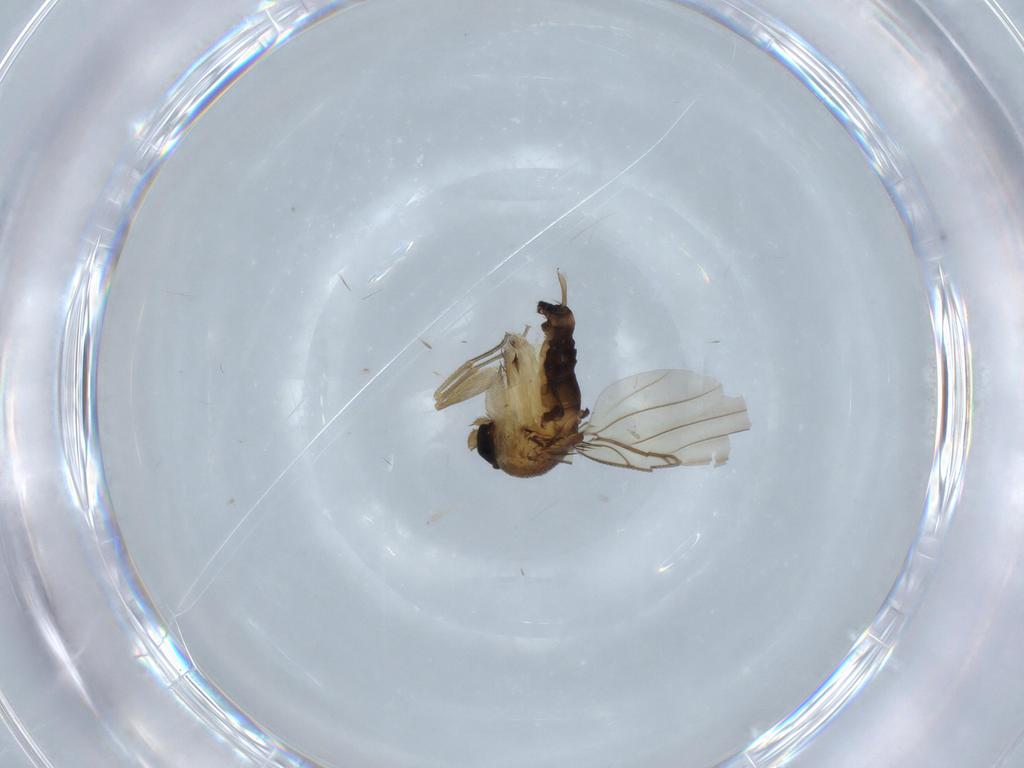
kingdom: Animalia
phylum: Arthropoda
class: Insecta
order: Diptera
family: Phoridae
